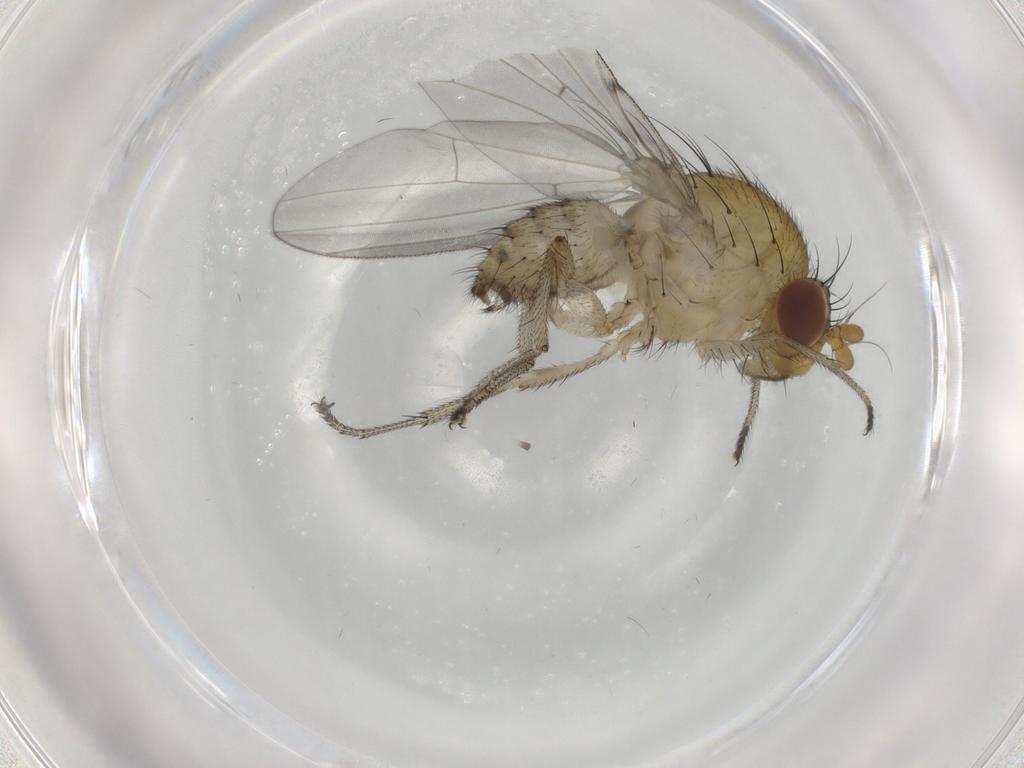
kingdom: Animalia
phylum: Arthropoda
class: Insecta
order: Diptera
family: Chironomidae
